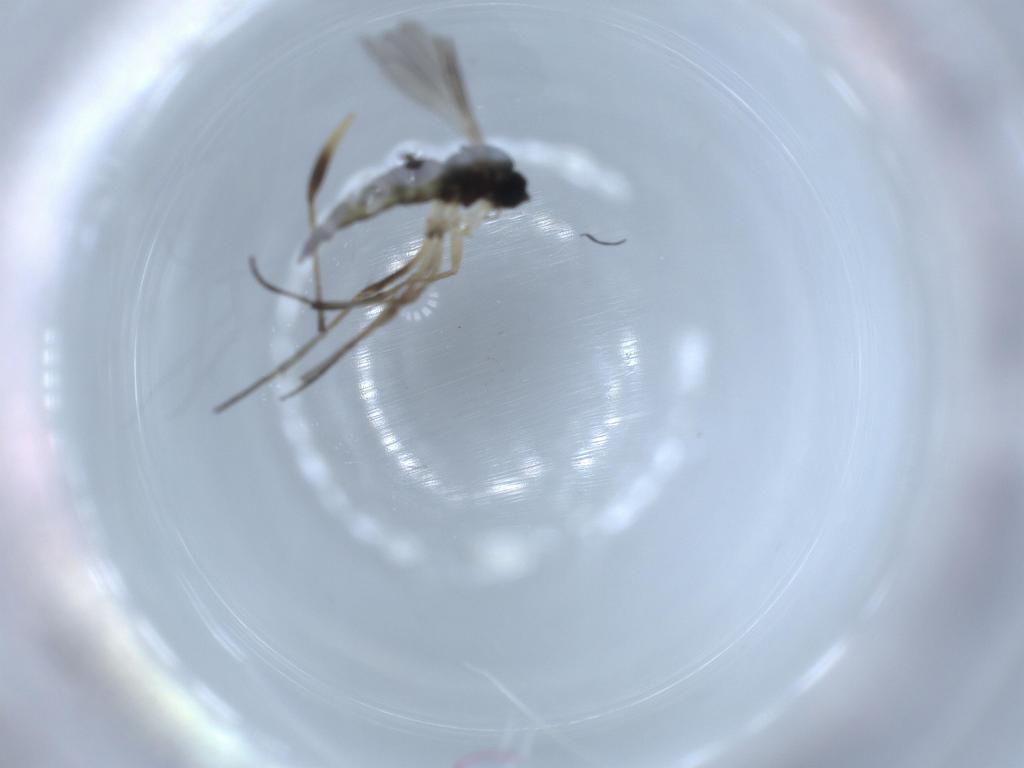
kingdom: Animalia
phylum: Arthropoda
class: Insecta
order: Diptera
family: Sciaridae
